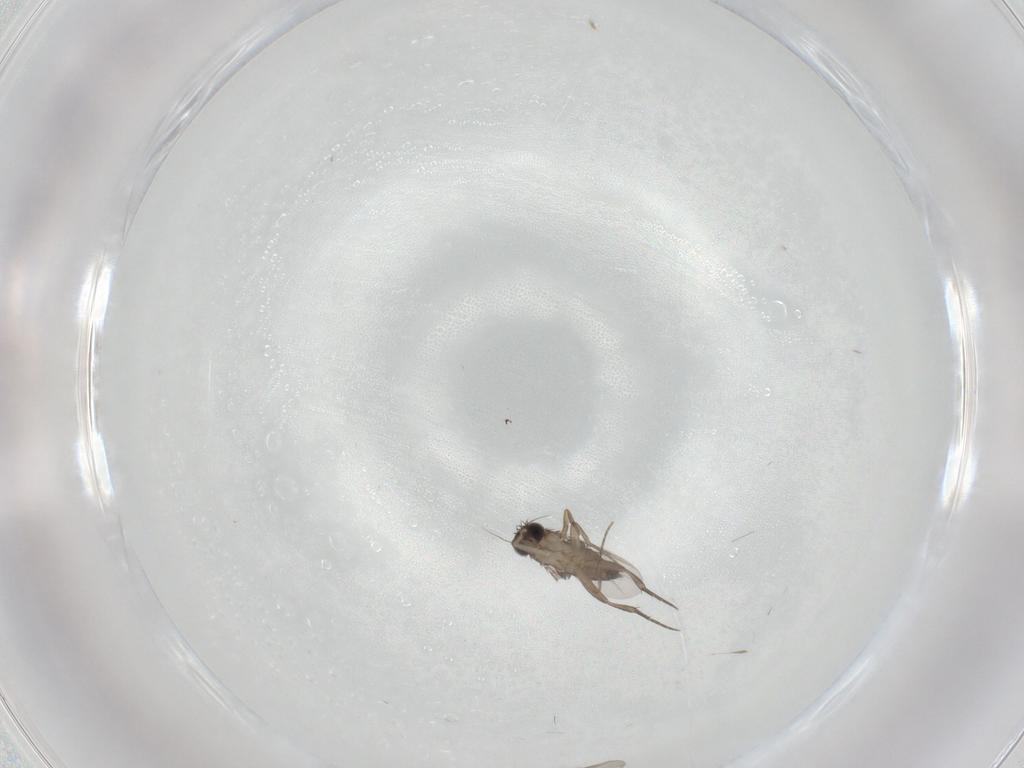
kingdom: Animalia
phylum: Arthropoda
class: Insecta
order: Diptera
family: Phoridae
